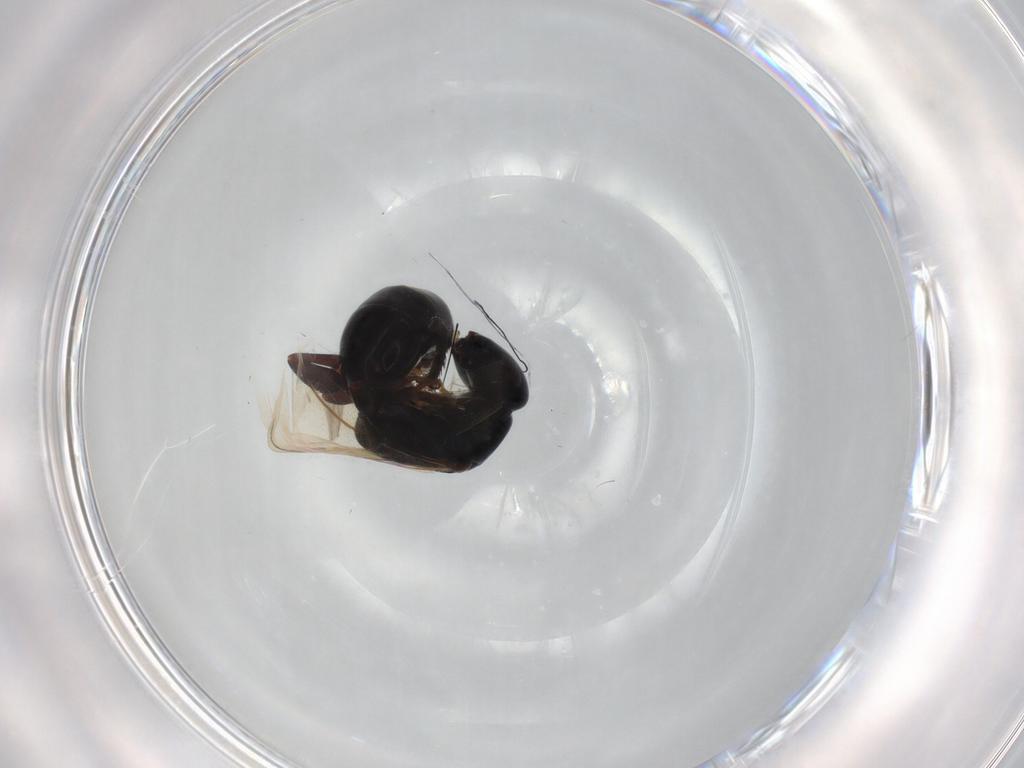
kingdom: Animalia
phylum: Arthropoda
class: Insecta
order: Hymenoptera
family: Bethylidae
